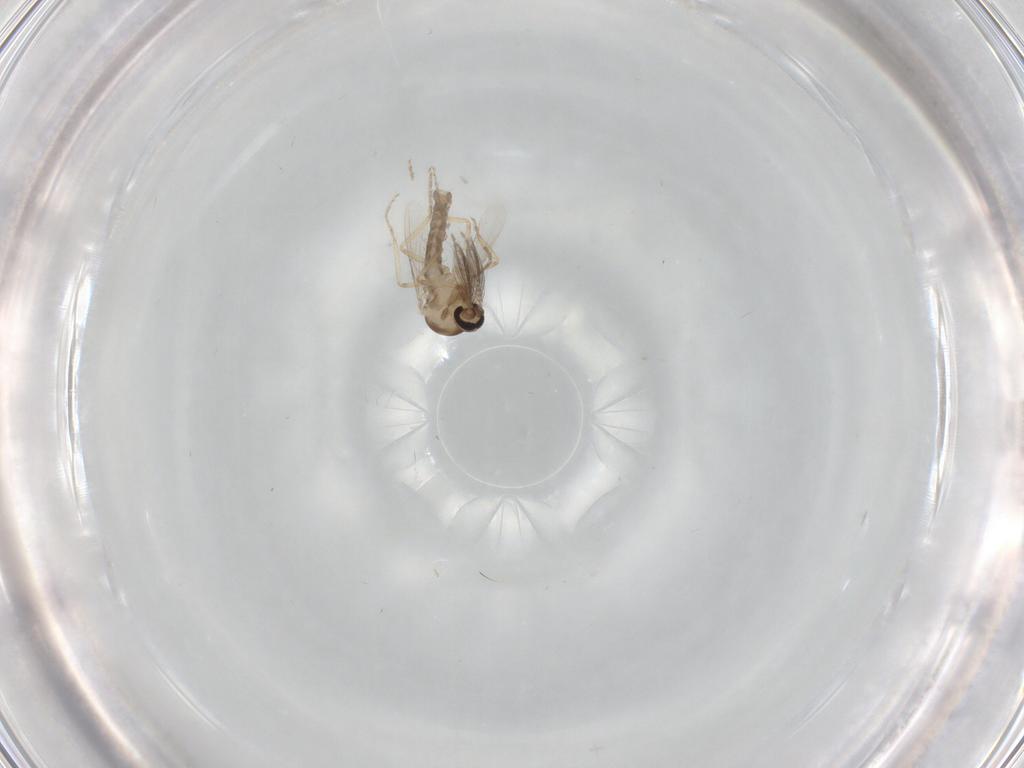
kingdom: Animalia
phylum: Arthropoda
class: Insecta
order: Diptera
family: Ceratopogonidae
